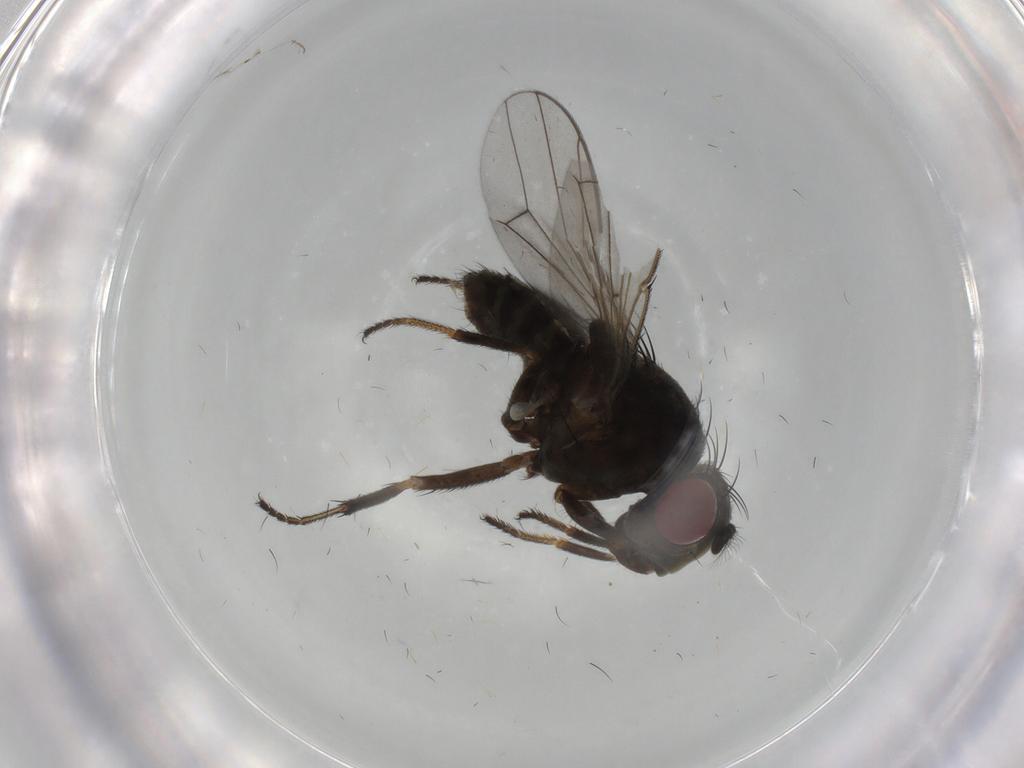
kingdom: Animalia
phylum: Arthropoda
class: Insecta
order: Diptera
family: Ephydridae
